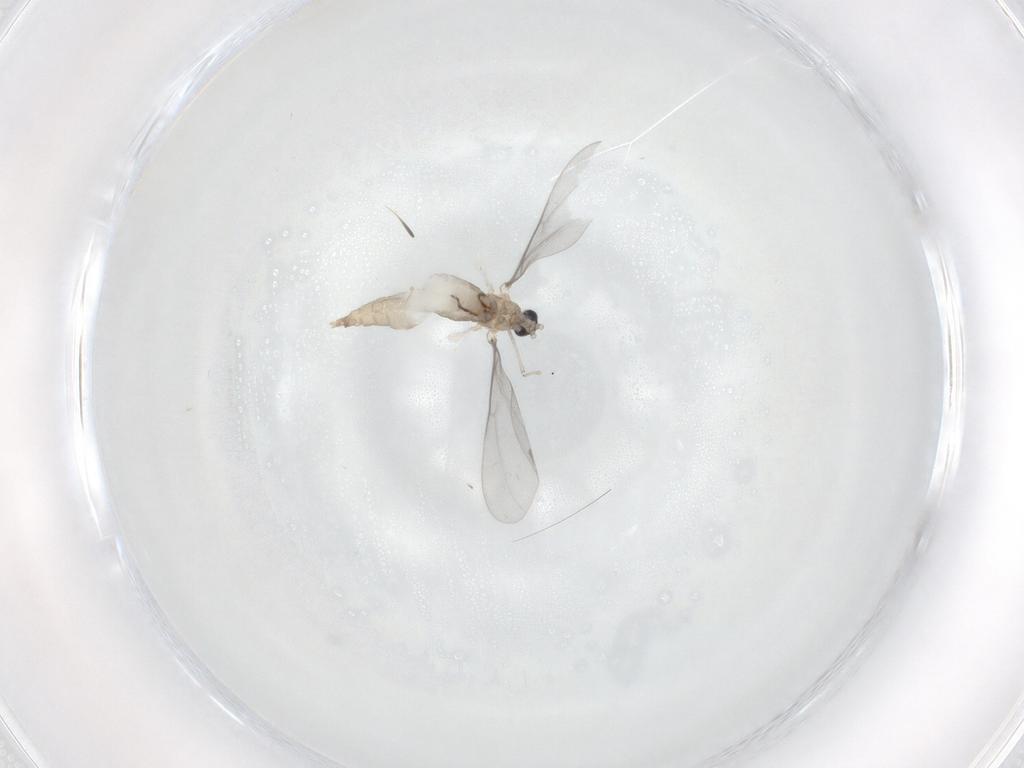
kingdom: Animalia
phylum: Arthropoda
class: Insecta
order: Diptera
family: Cecidomyiidae
